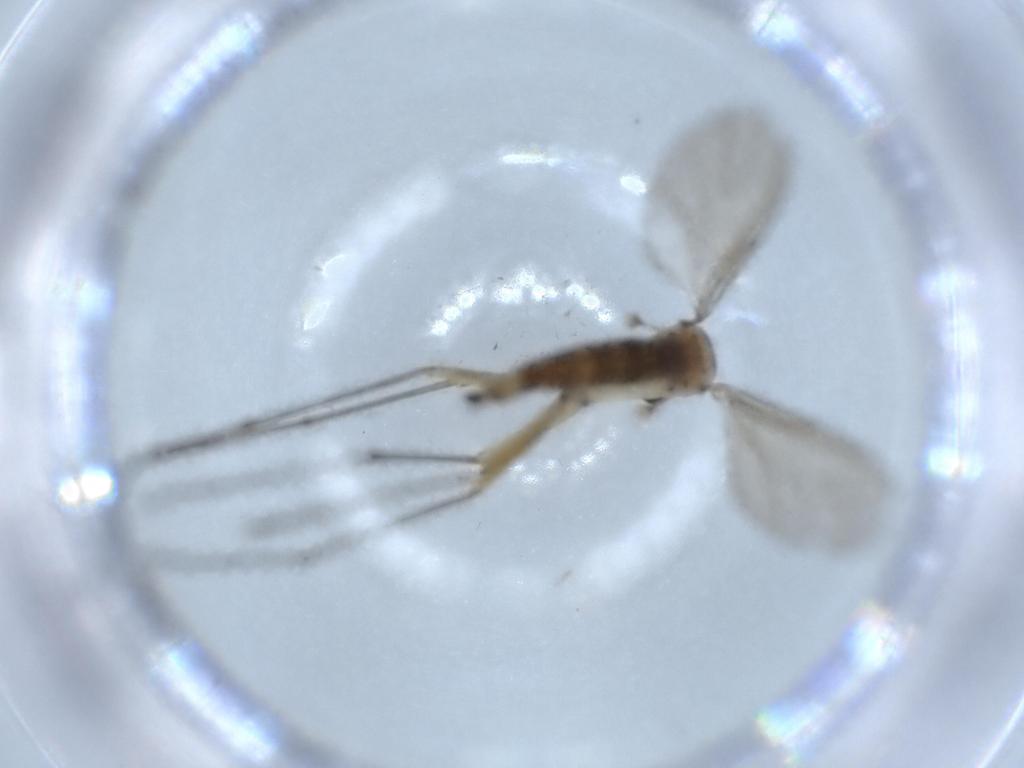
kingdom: Animalia
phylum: Arthropoda
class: Insecta
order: Diptera
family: Sciaridae
